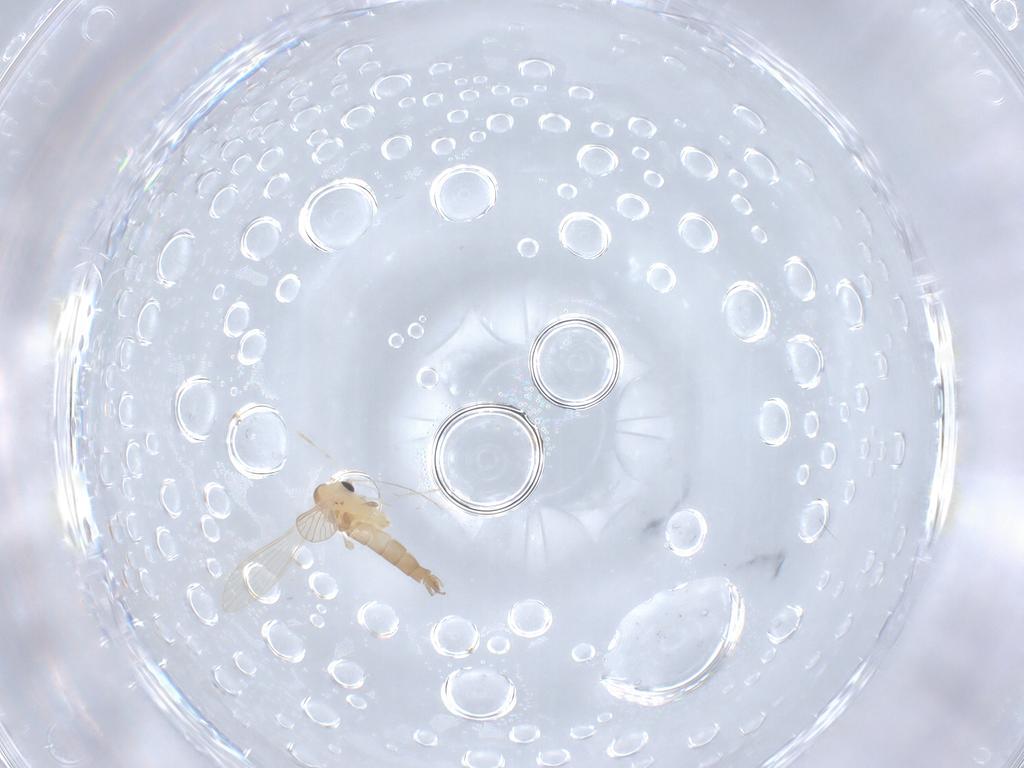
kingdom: Animalia
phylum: Arthropoda
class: Insecta
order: Diptera
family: Psychodidae
